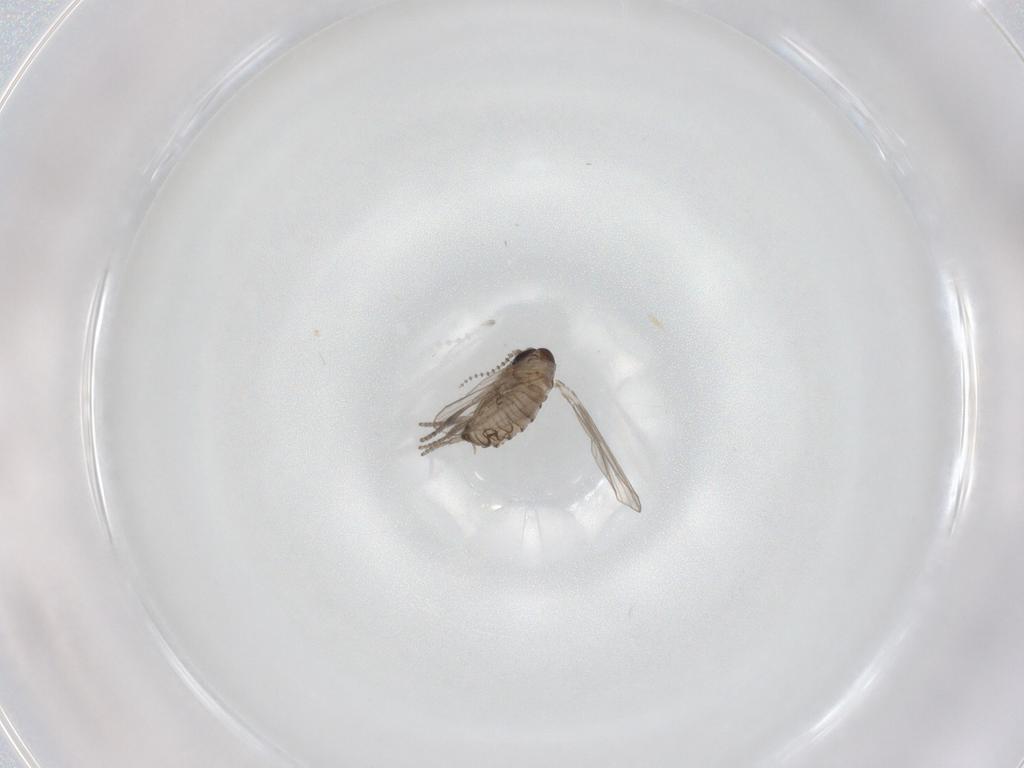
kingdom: Animalia
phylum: Arthropoda
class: Insecta
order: Diptera
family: Psychodidae
